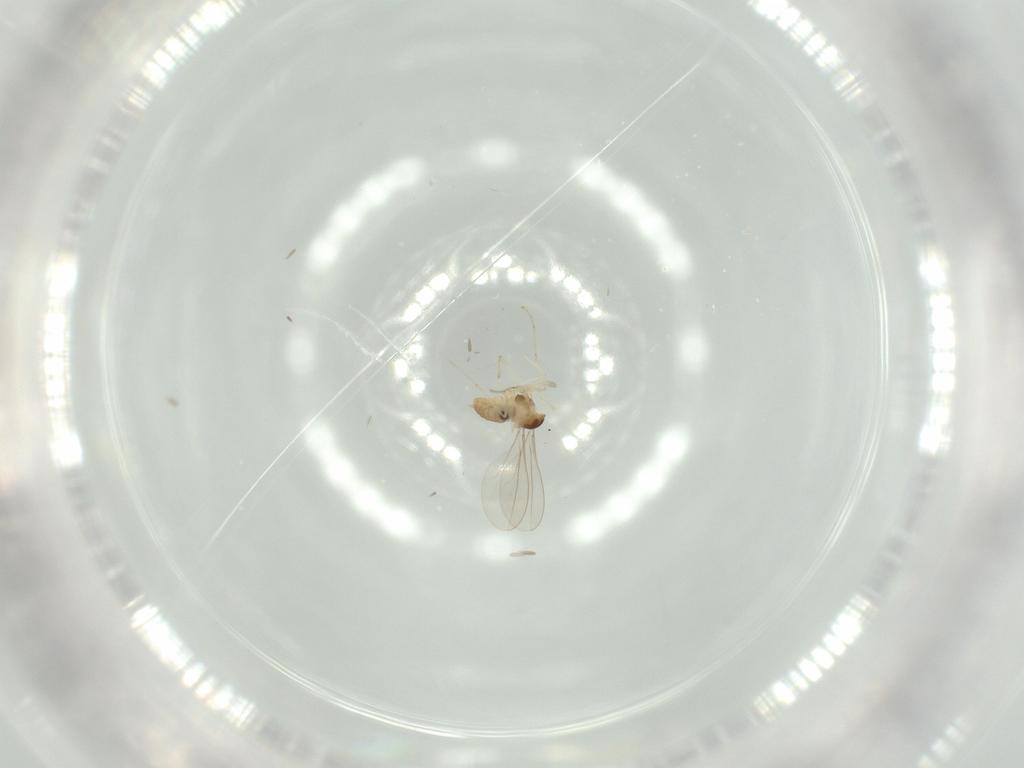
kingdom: Animalia
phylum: Arthropoda
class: Insecta
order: Diptera
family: Cecidomyiidae
